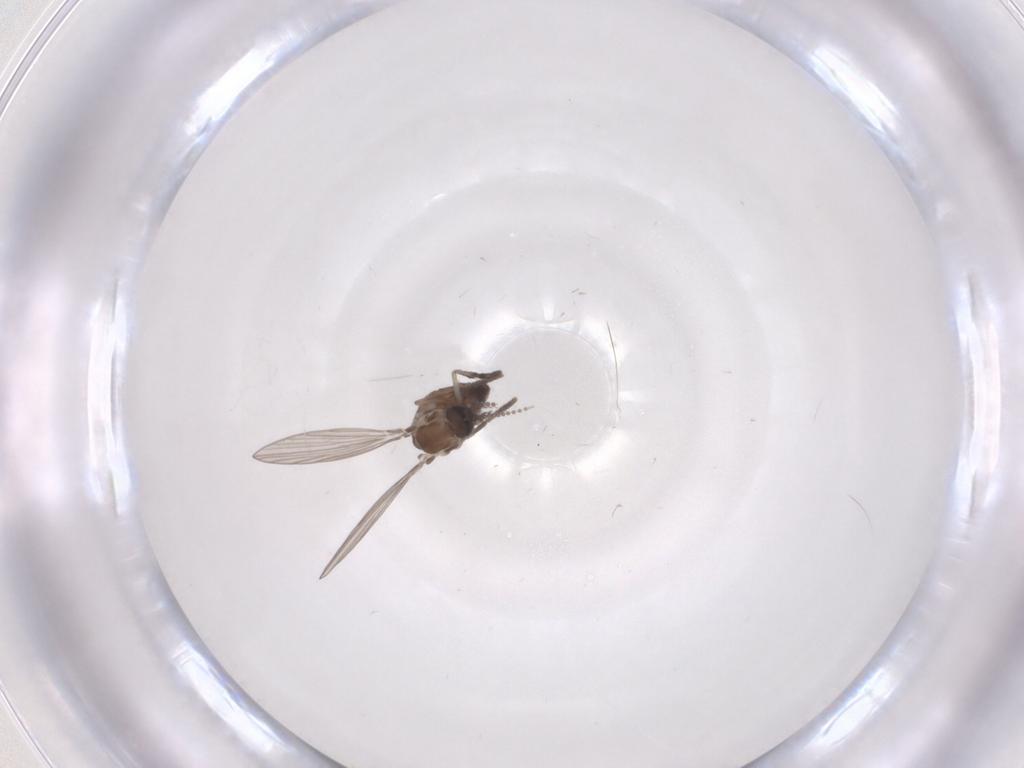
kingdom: Animalia
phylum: Arthropoda
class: Insecta
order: Diptera
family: Psychodidae
